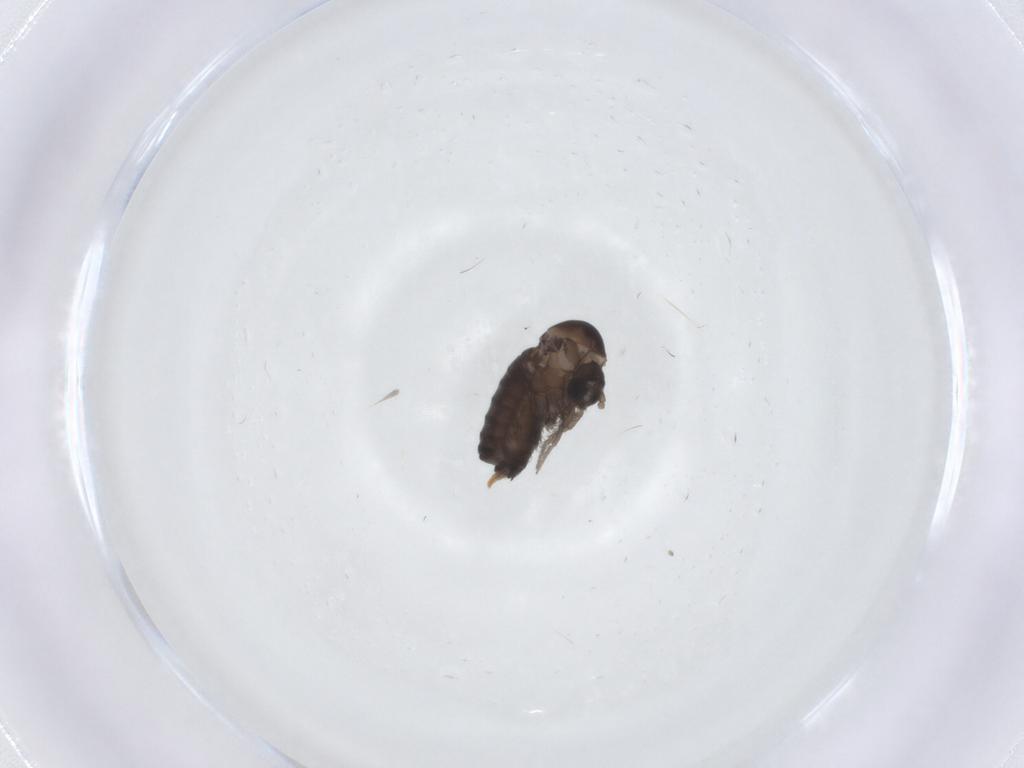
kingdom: Animalia
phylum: Arthropoda
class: Insecta
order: Diptera
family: Psychodidae
